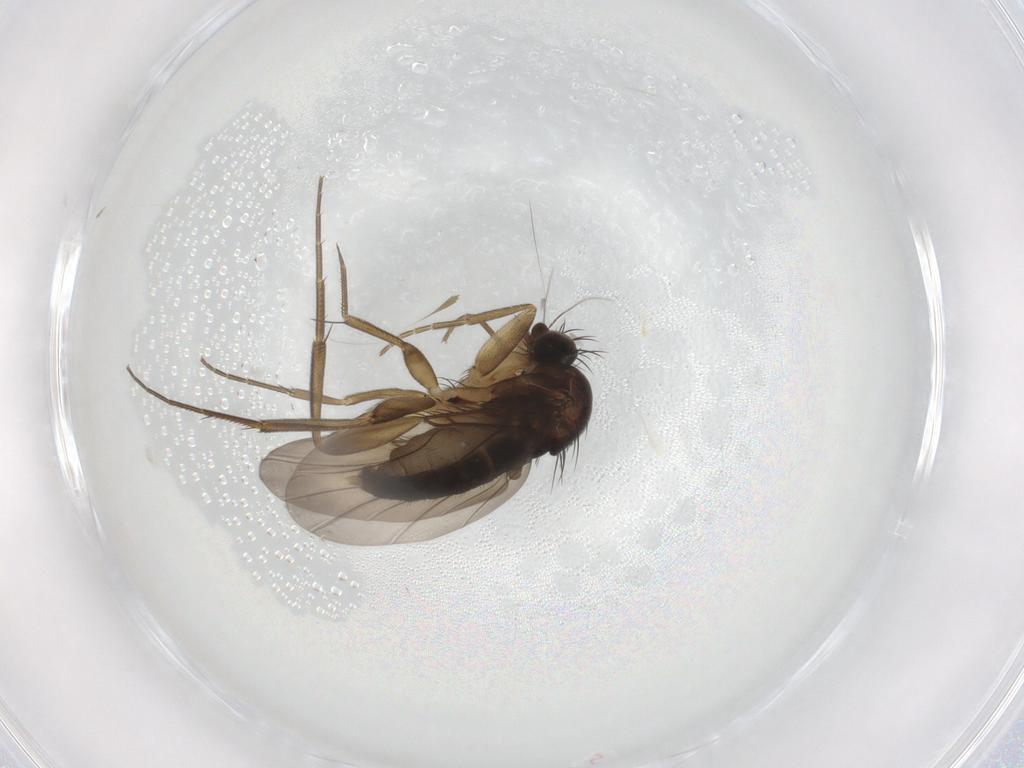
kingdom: Animalia
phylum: Arthropoda
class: Insecta
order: Diptera
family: Phoridae
